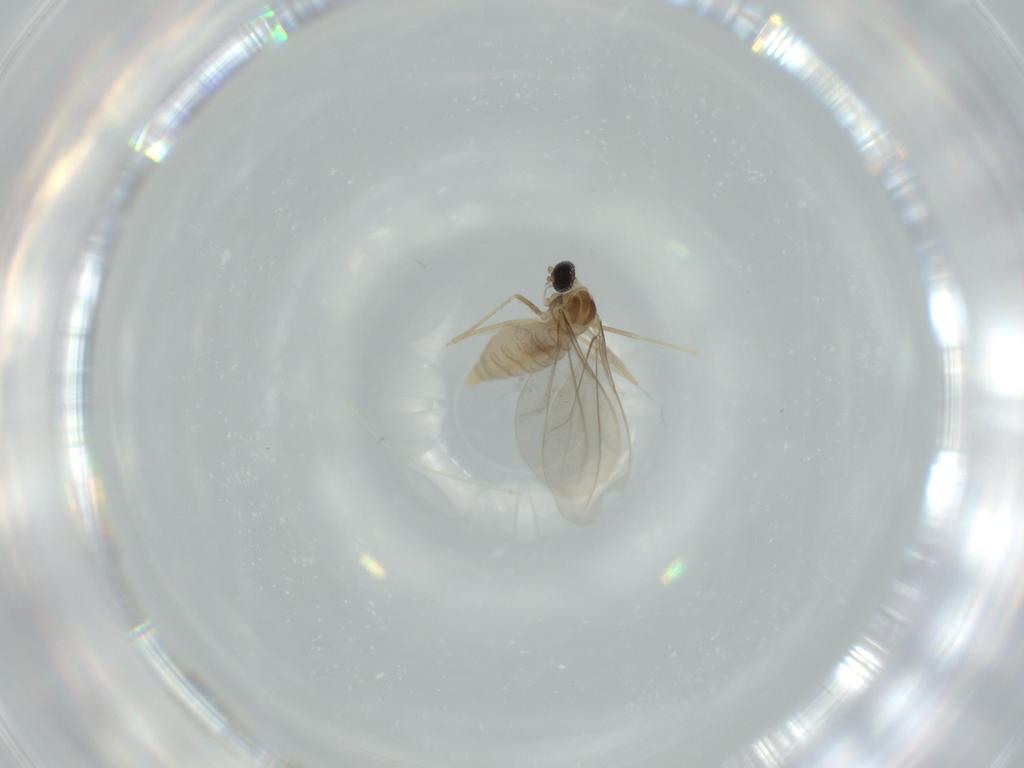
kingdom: Animalia
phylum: Arthropoda
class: Insecta
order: Diptera
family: Cecidomyiidae
